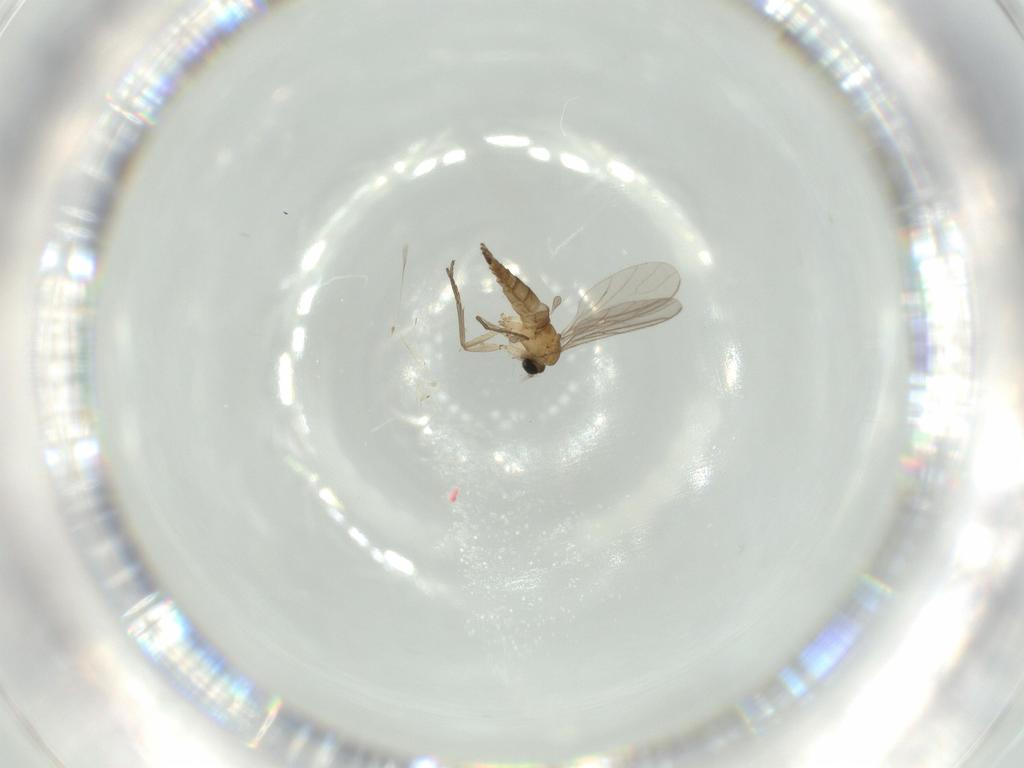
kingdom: Animalia
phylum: Arthropoda
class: Insecta
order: Diptera
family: Sciaridae
